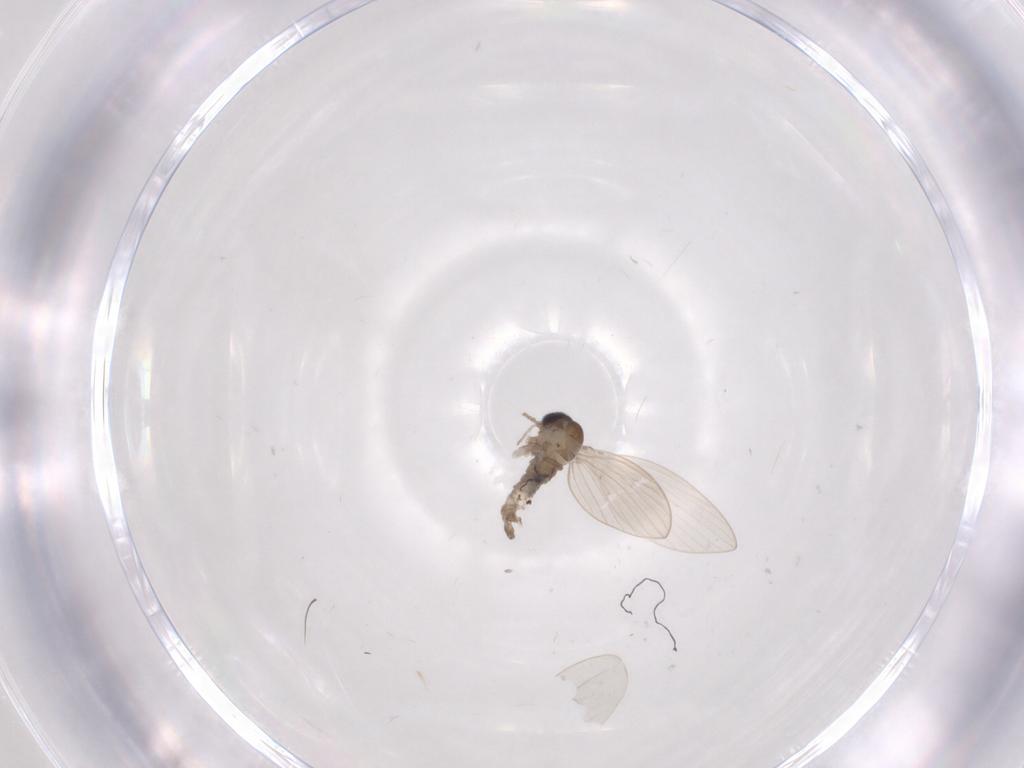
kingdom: Animalia
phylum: Arthropoda
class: Insecta
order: Diptera
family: Psychodidae
